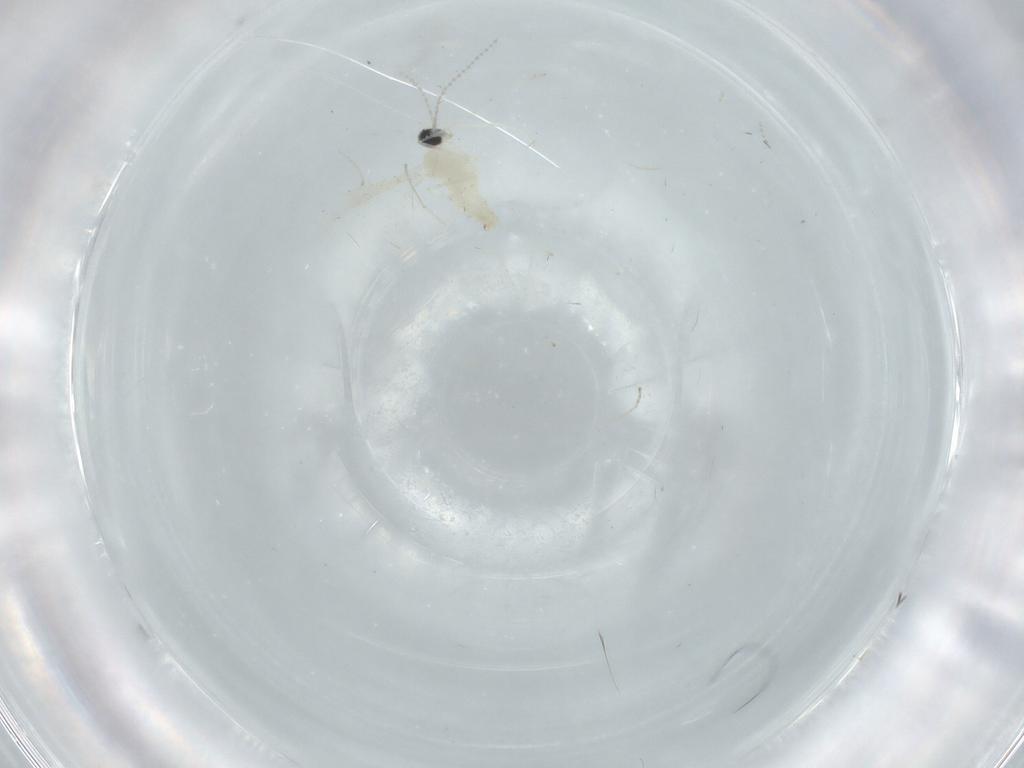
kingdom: Animalia
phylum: Arthropoda
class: Insecta
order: Diptera
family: Cecidomyiidae
